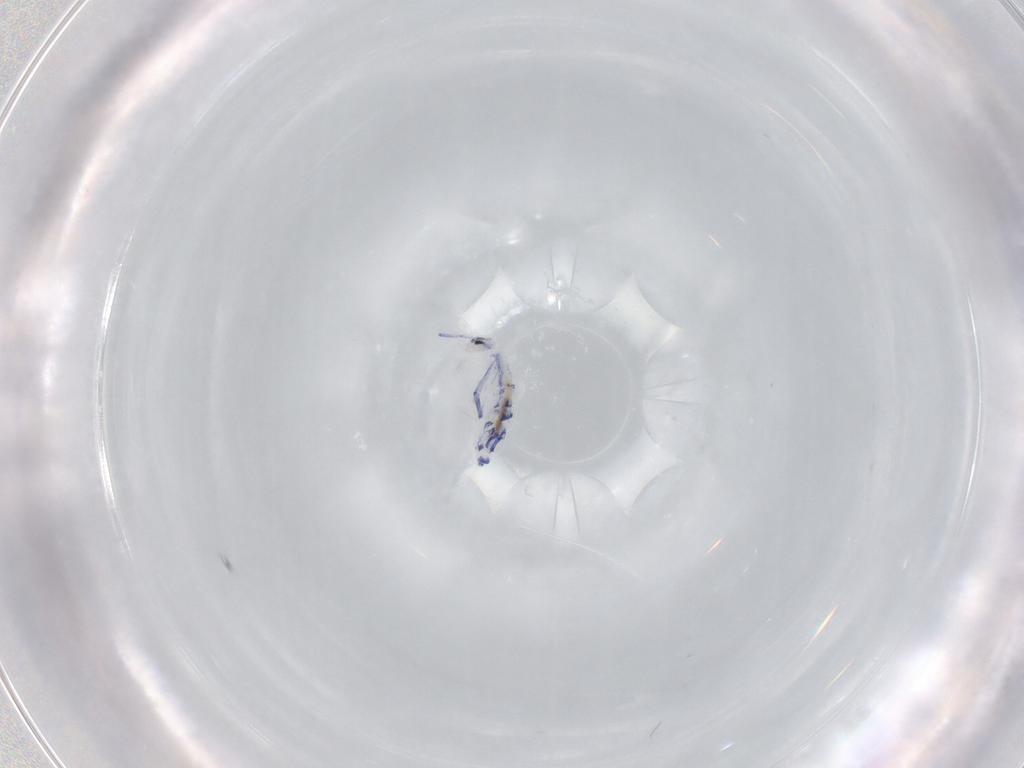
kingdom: Animalia
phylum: Arthropoda
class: Collembola
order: Entomobryomorpha
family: Entomobryidae
